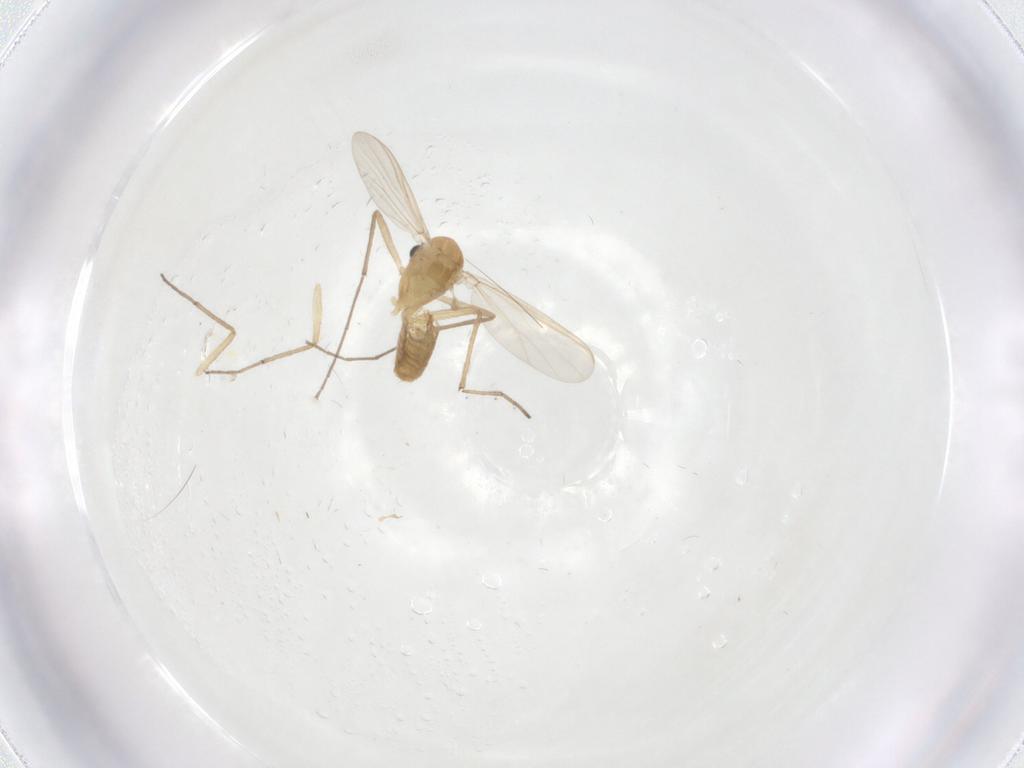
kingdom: Animalia
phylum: Arthropoda
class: Insecta
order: Diptera
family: Chironomidae
